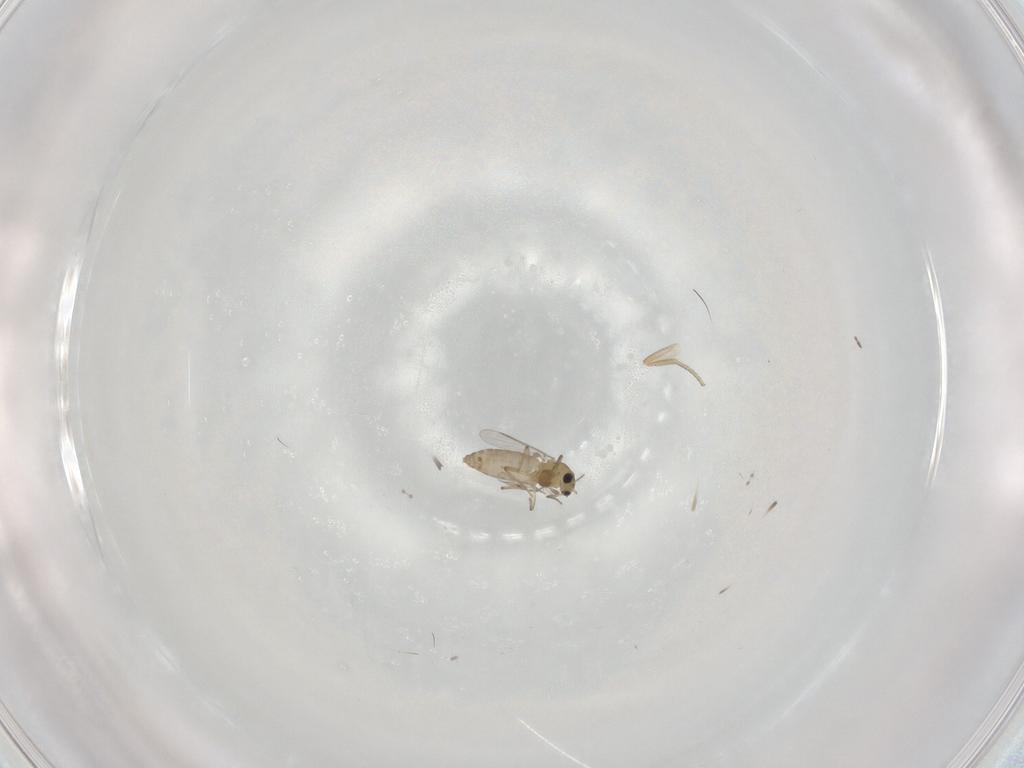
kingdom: Animalia
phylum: Arthropoda
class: Insecta
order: Diptera
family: Chironomidae
